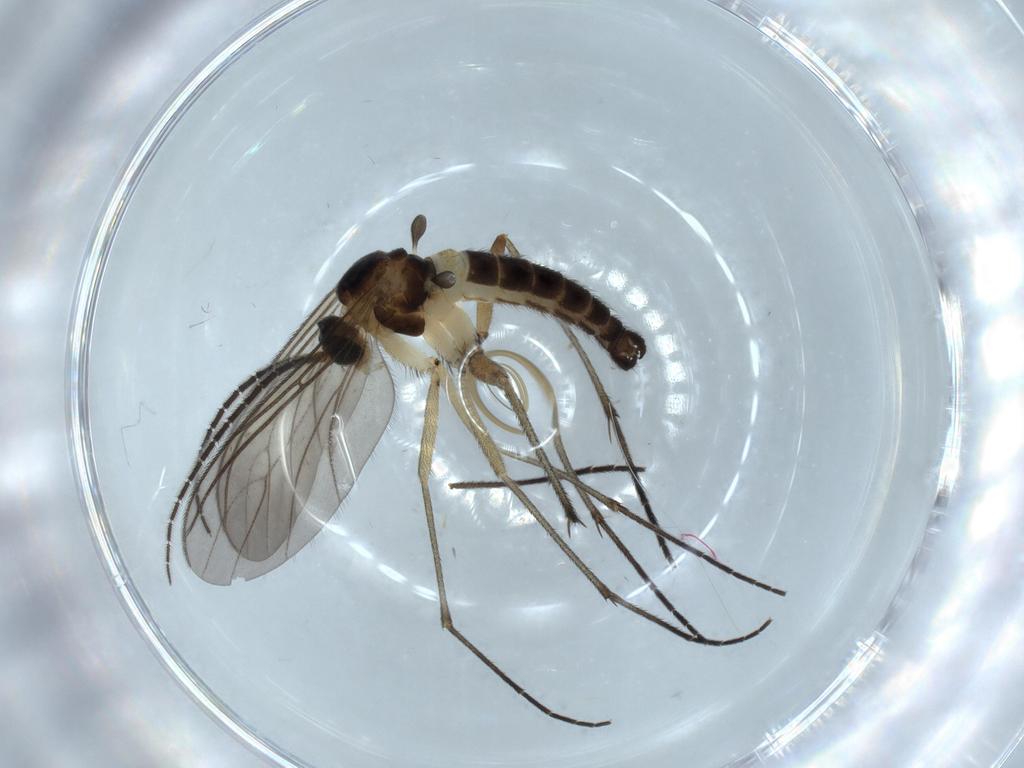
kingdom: Animalia
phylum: Arthropoda
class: Insecta
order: Diptera
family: Sciaridae
